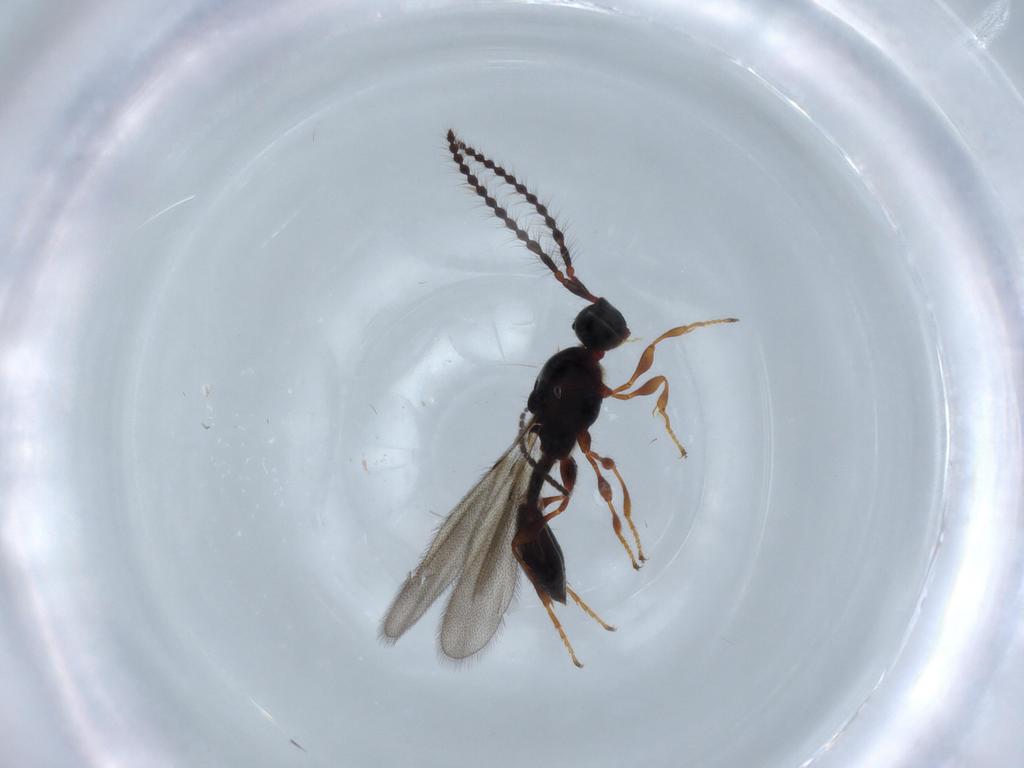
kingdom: Animalia
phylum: Arthropoda
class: Insecta
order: Hymenoptera
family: Diapriidae
